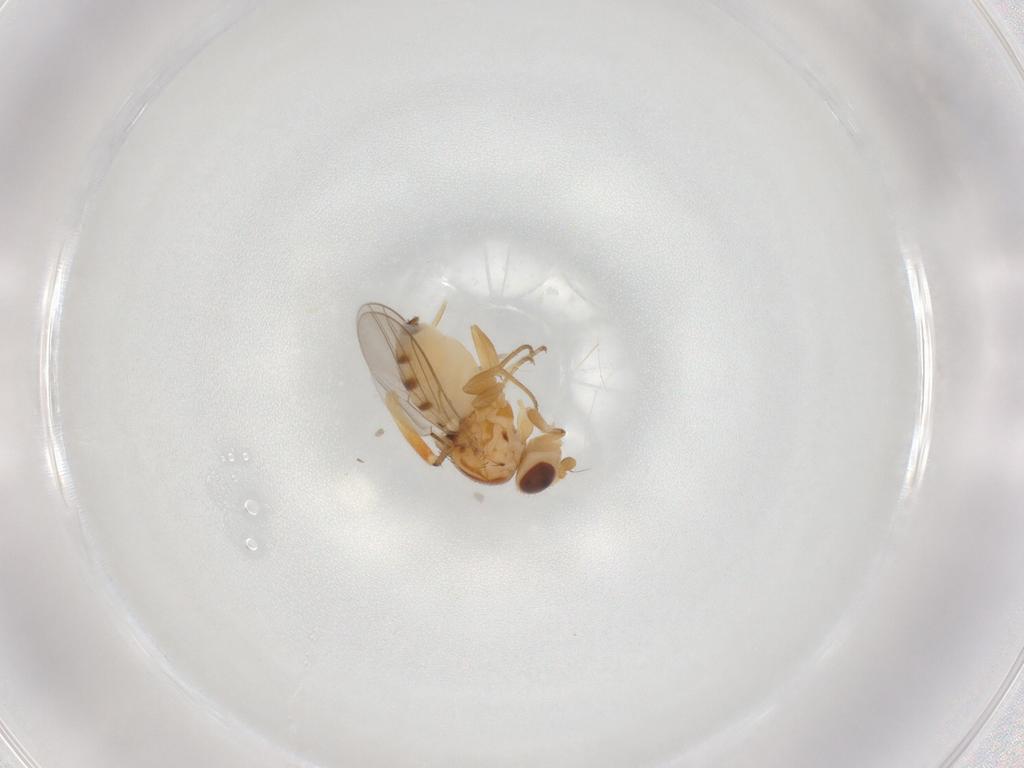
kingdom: Animalia
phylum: Arthropoda
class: Insecta
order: Diptera
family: Chloropidae
